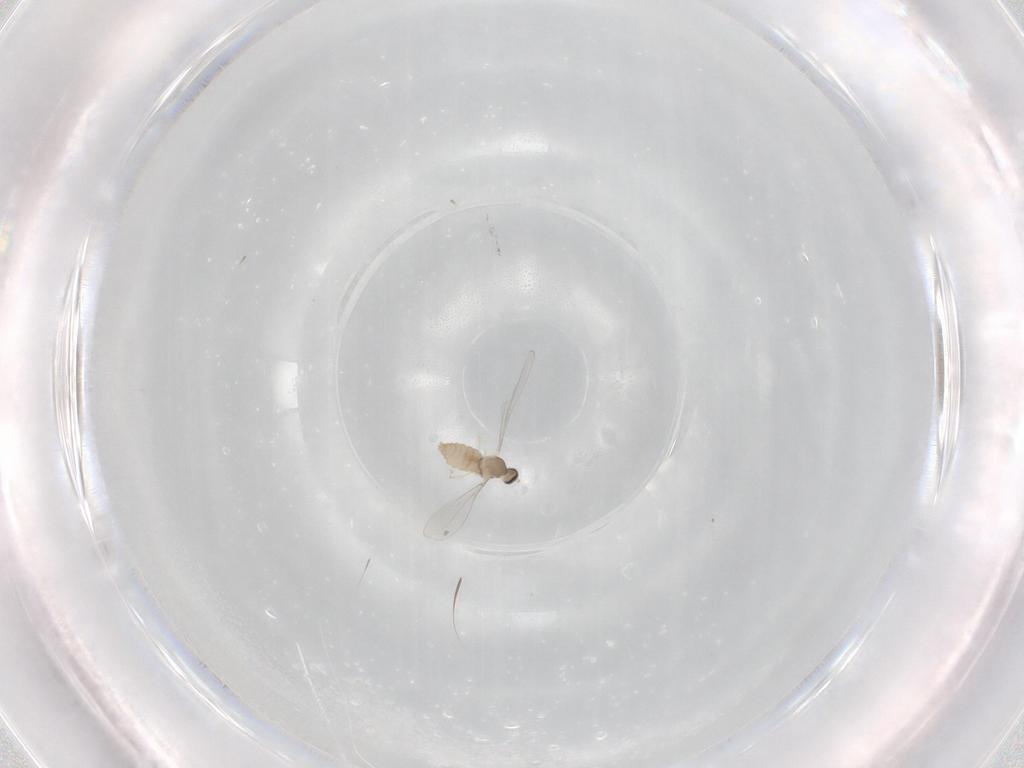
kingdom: Animalia
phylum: Arthropoda
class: Insecta
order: Diptera
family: Cecidomyiidae
